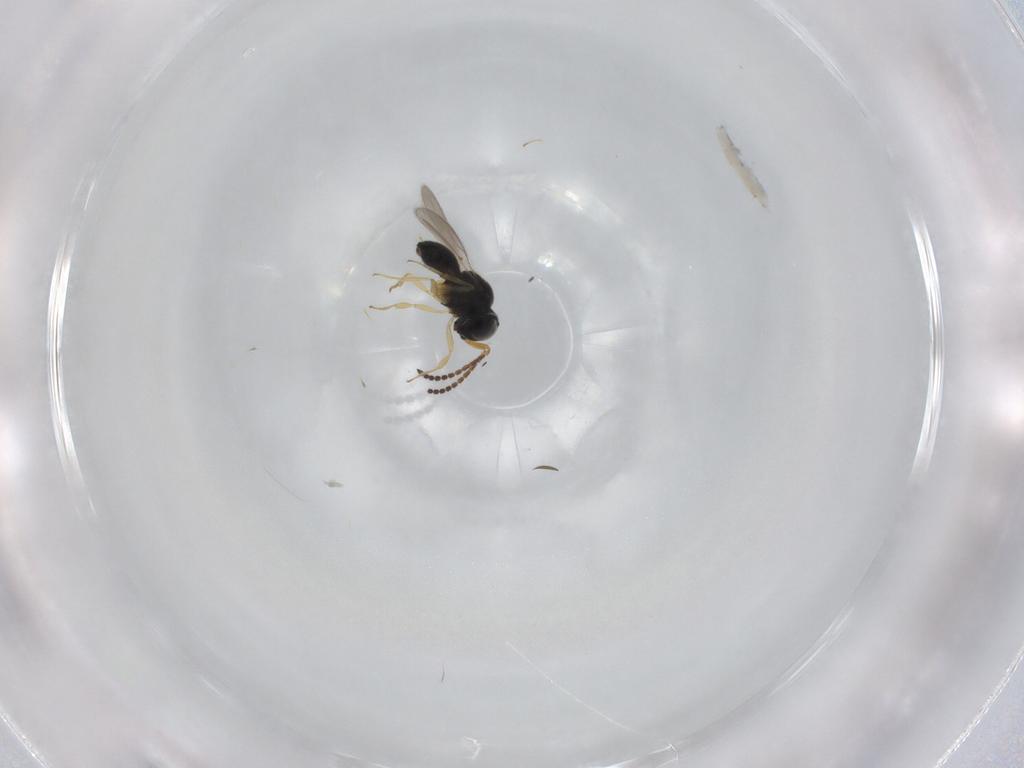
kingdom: Animalia
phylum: Arthropoda
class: Insecta
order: Hymenoptera
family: Scelionidae
